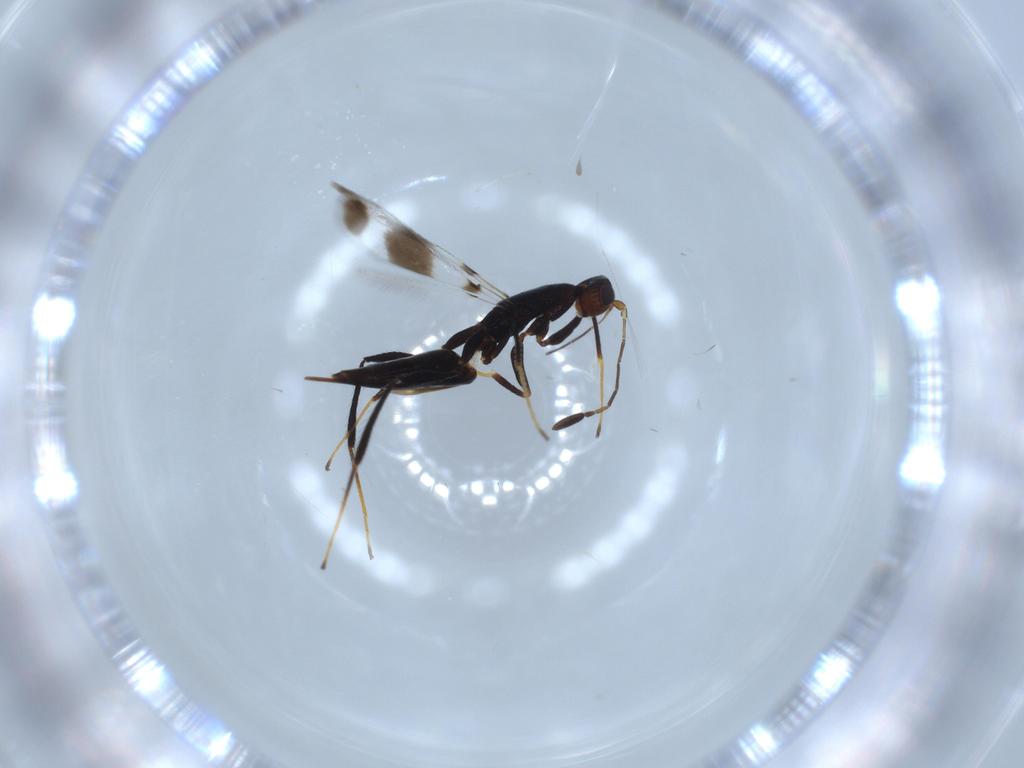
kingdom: Animalia
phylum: Arthropoda
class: Insecta
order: Hymenoptera
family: Mymaridae
